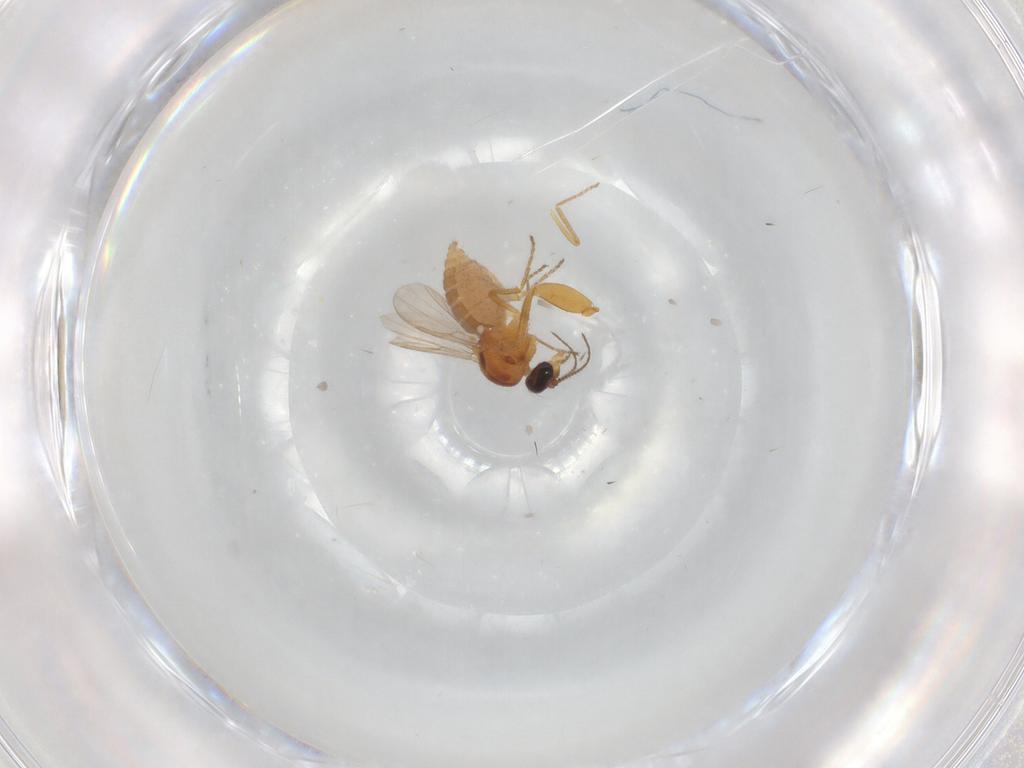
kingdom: Animalia
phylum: Arthropoda
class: Insecta
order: Diptera
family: Ceratopogonidae
